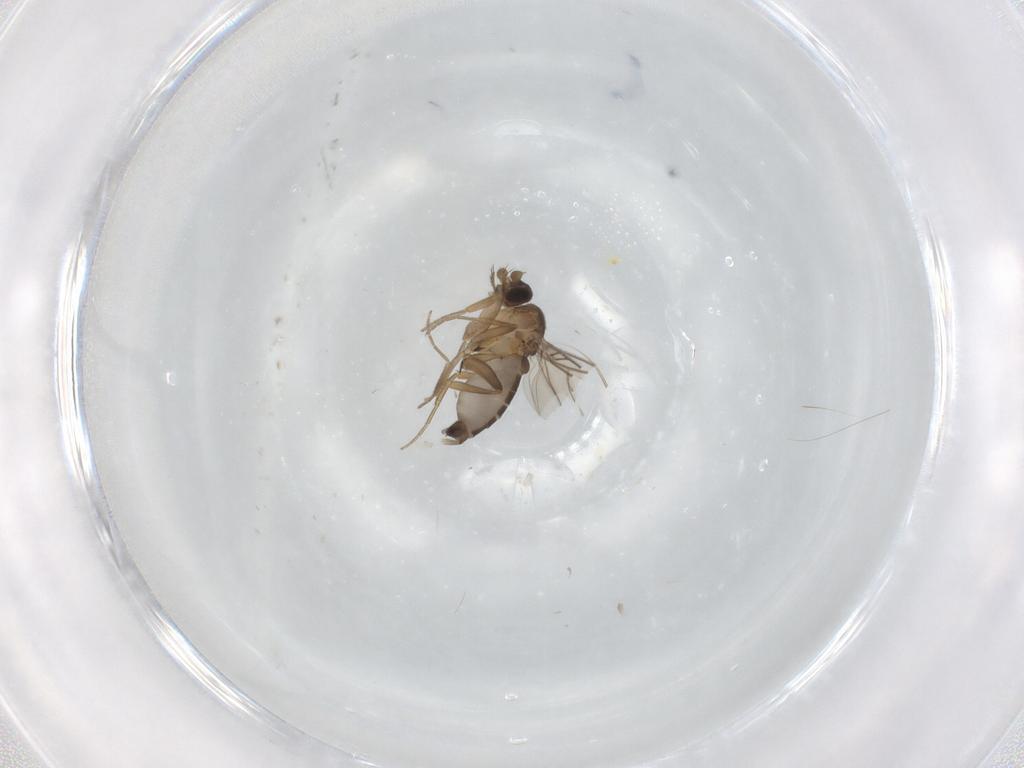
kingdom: Animalia
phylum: Arthropoda
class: Insecta
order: Diptera
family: Phoridae
